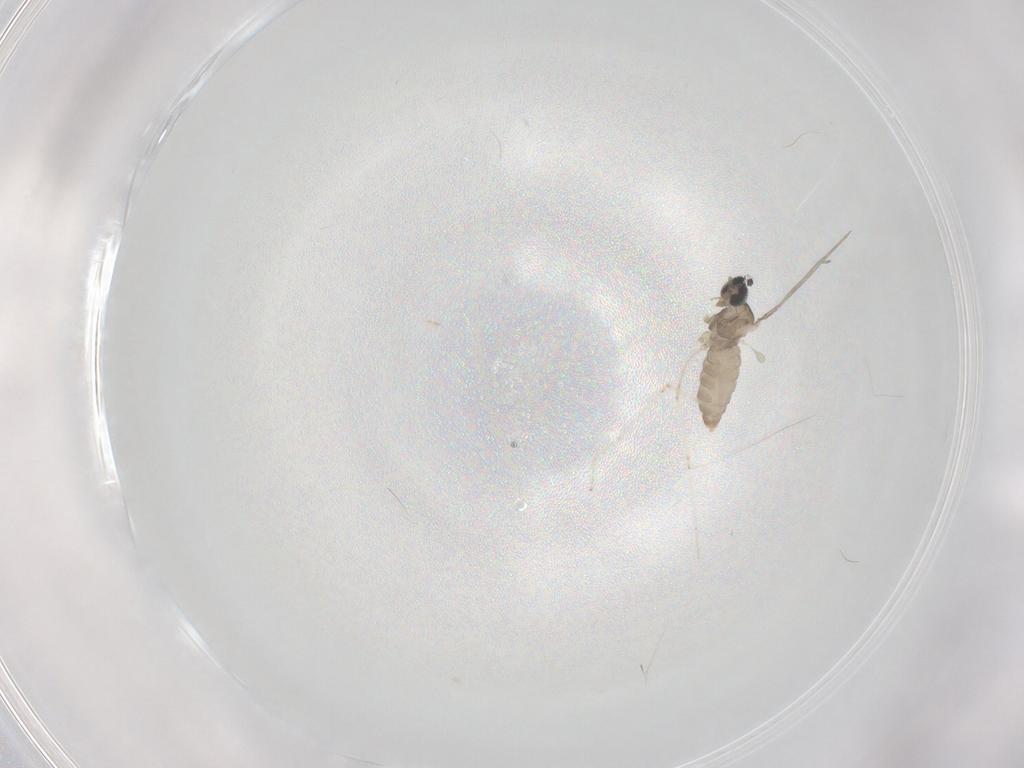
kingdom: Animalia
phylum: Arthropoda
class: Insecta
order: Diptera
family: Cecidomyiidae
